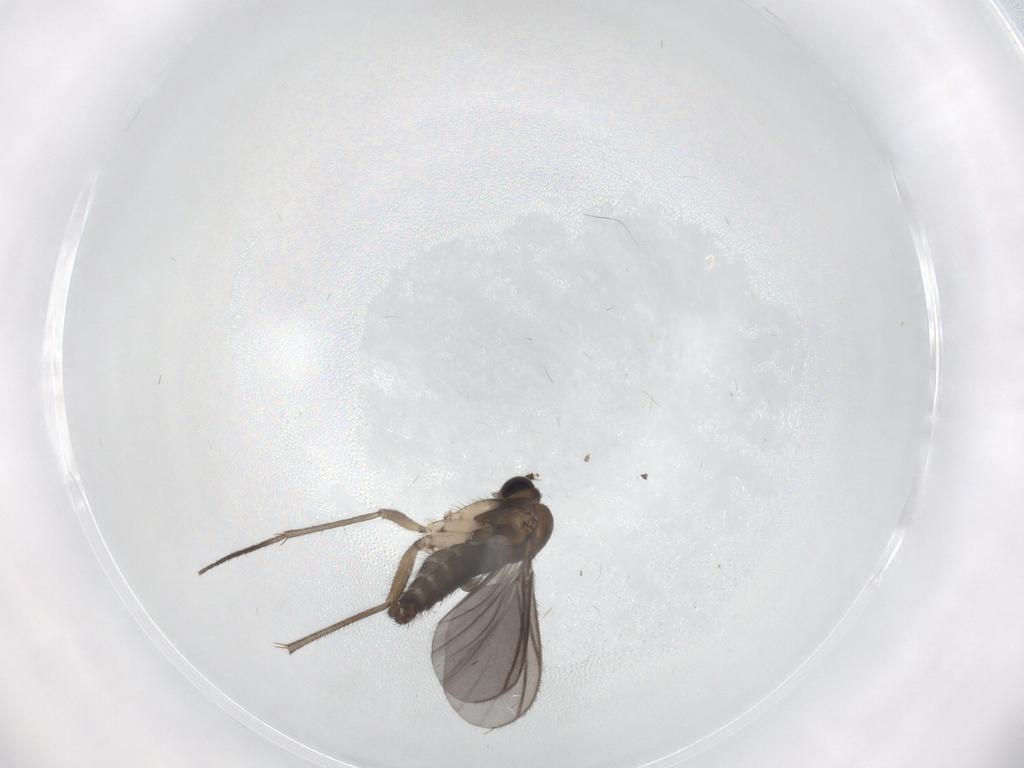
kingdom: Animalia
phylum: Arthropoda
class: Insecta
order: Diptera
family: Sciaridae
